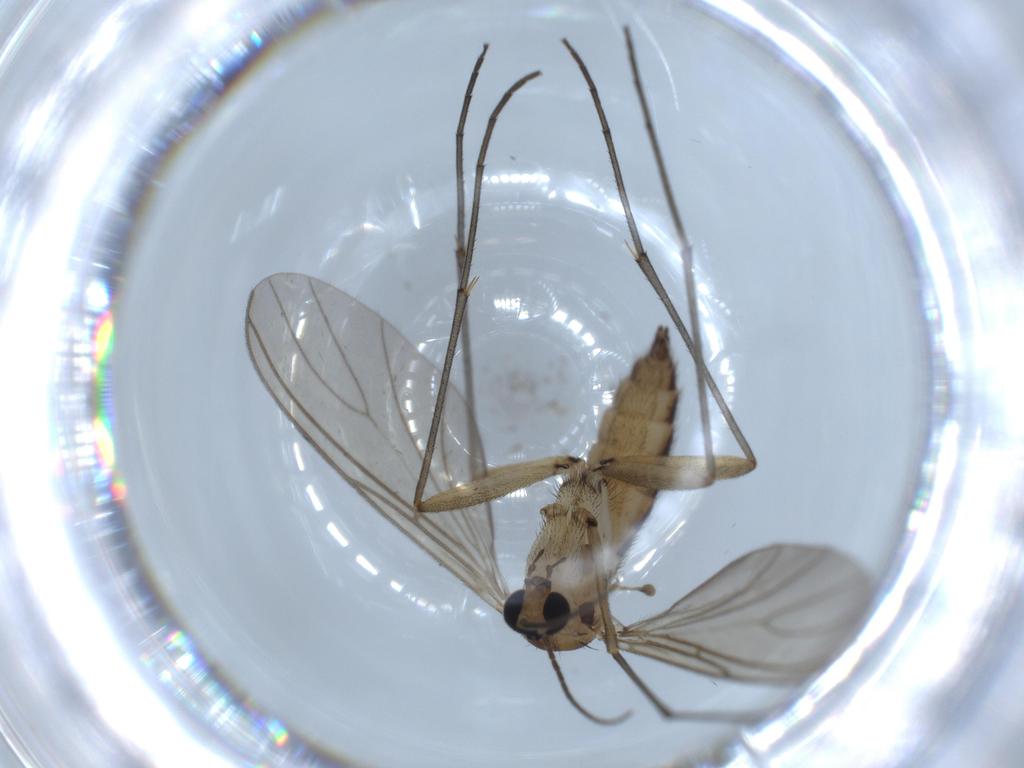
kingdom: Animalia
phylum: Arthropoda
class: Insecta
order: Diptera
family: Sciaridae
